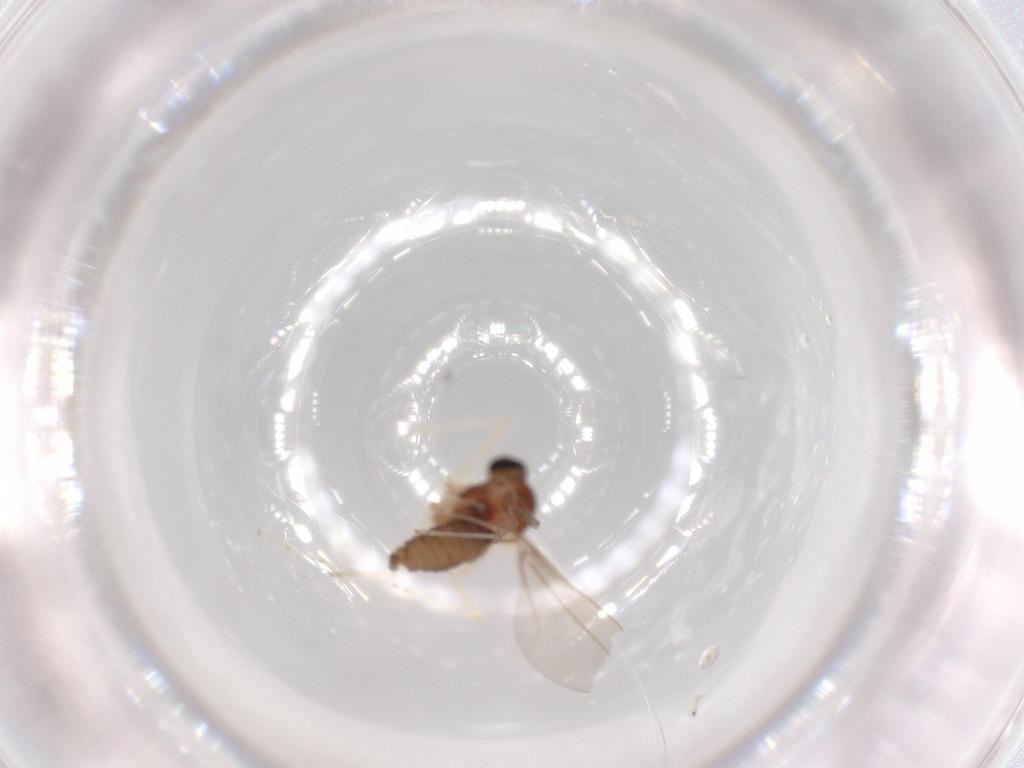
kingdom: Animalia
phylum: Arthropoda
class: Insecta
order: Diptera
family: Cecidomyiidae
